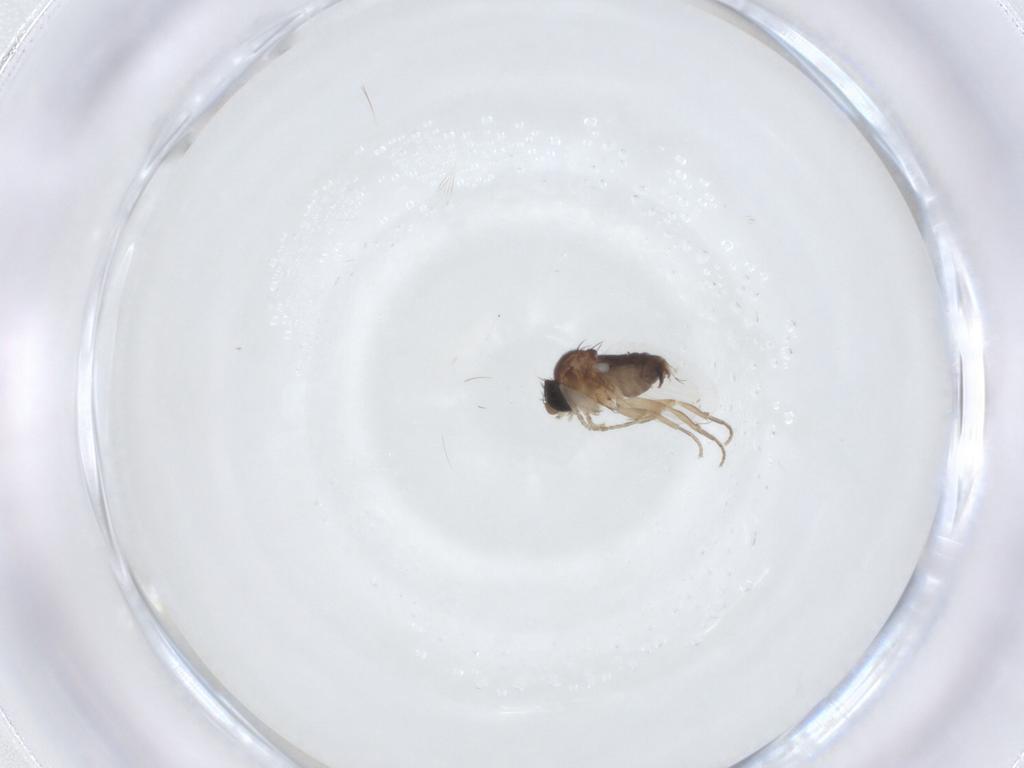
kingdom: Animalia
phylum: Arthropoda
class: Insecta
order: Diptera
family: Phoridae
